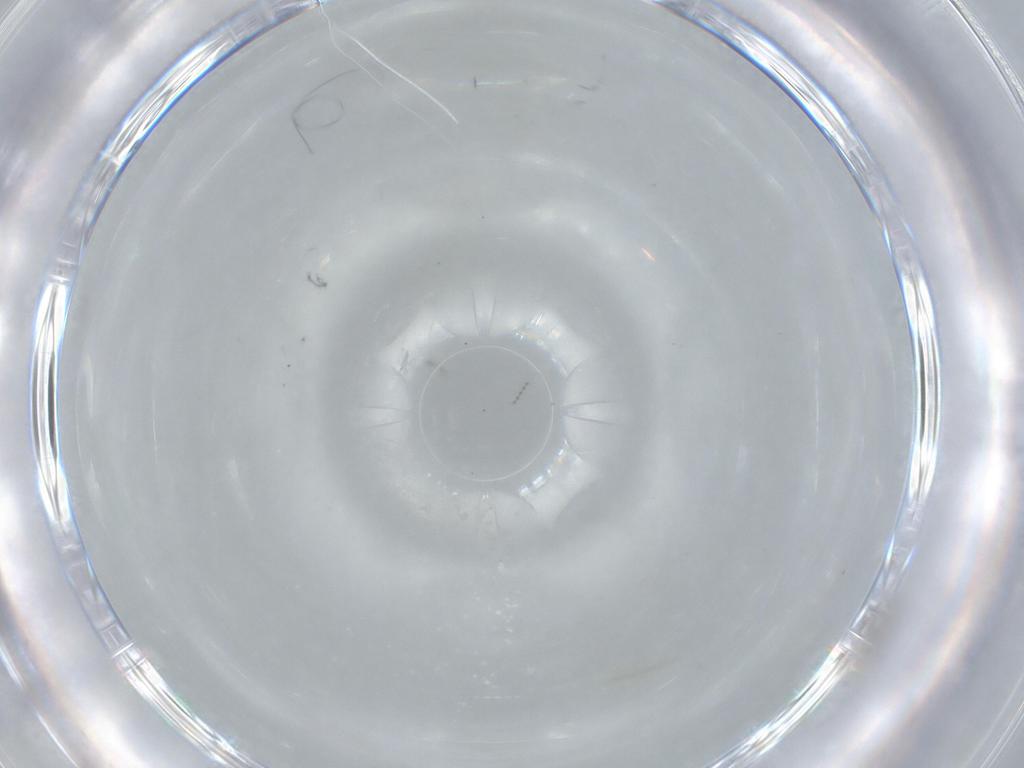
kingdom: Animalia
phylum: Arthropoda
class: Insecta
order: Diptera
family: Cecidomyiidae
